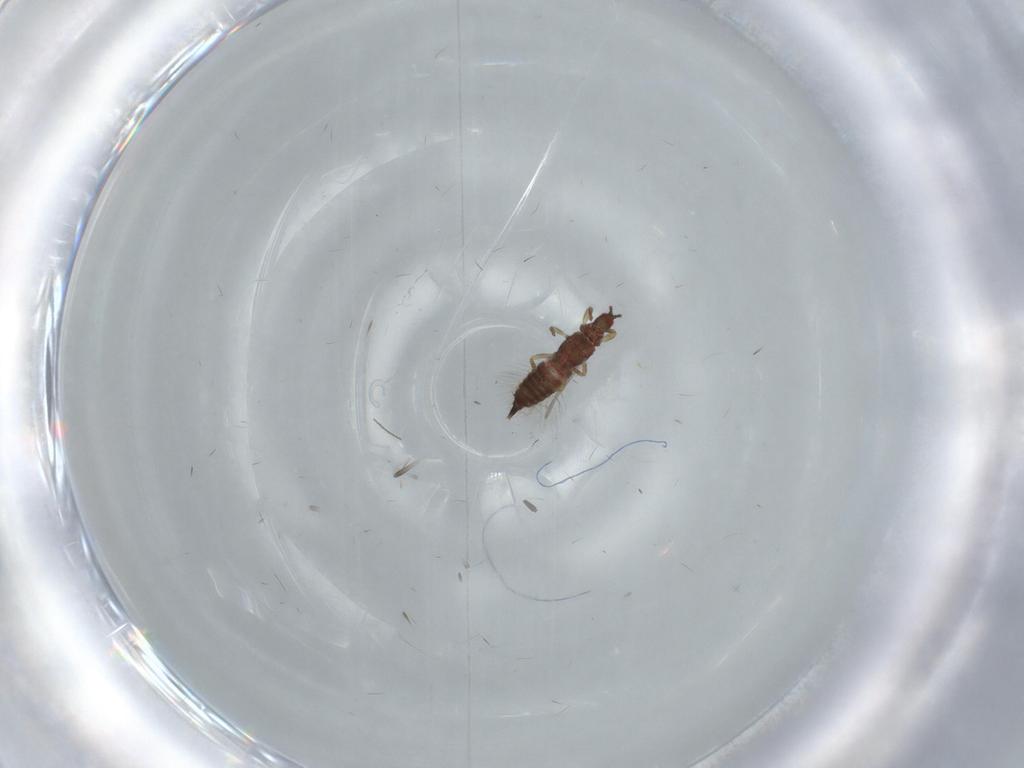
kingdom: Animalia
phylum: Arthropoda
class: Insecta
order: Thysanoptera
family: Phlaeothripidae
